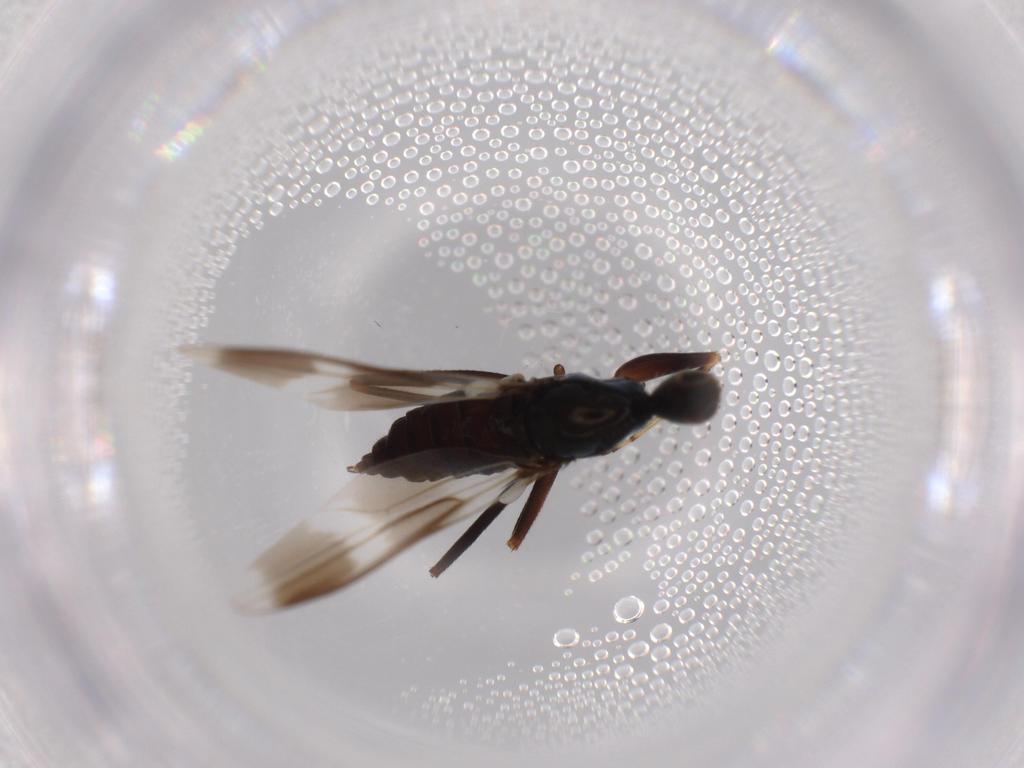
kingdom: Animalia
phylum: Arthropoda
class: Insecta
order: Diptera
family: Hybotidae
